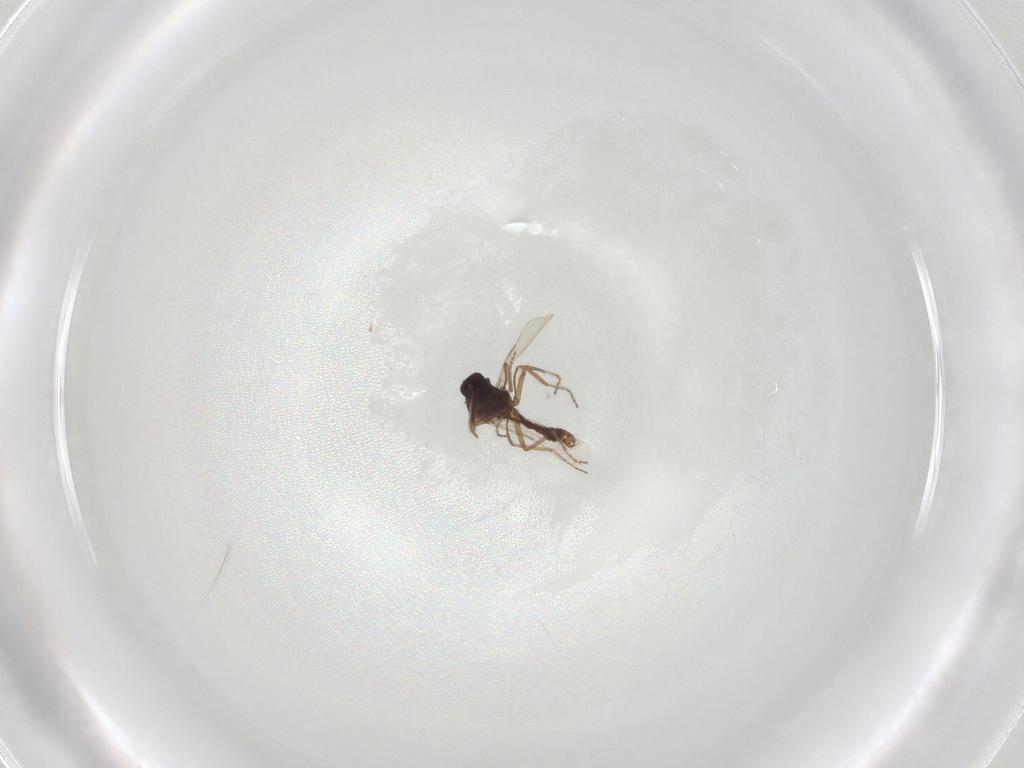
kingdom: Animalia
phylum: Arthropoda
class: Insecta
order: Diptera
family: Ceratopogonidae
